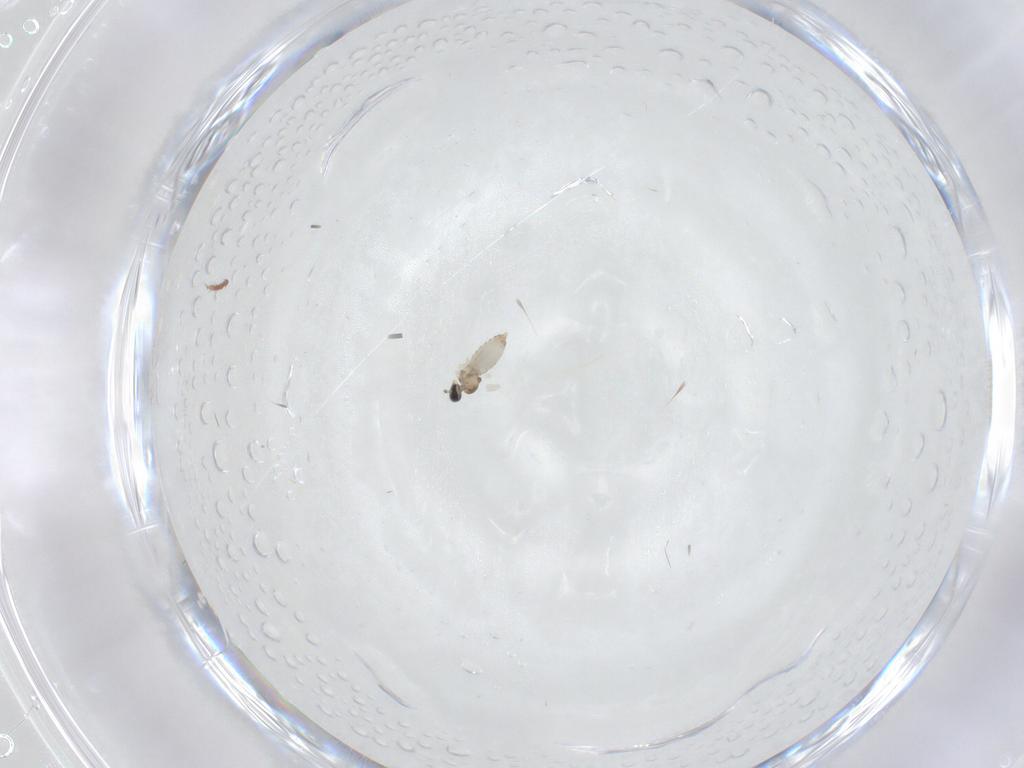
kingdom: Animalia
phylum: Arthropoda
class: Insecta
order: Diptera
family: Cecidomyiidae
